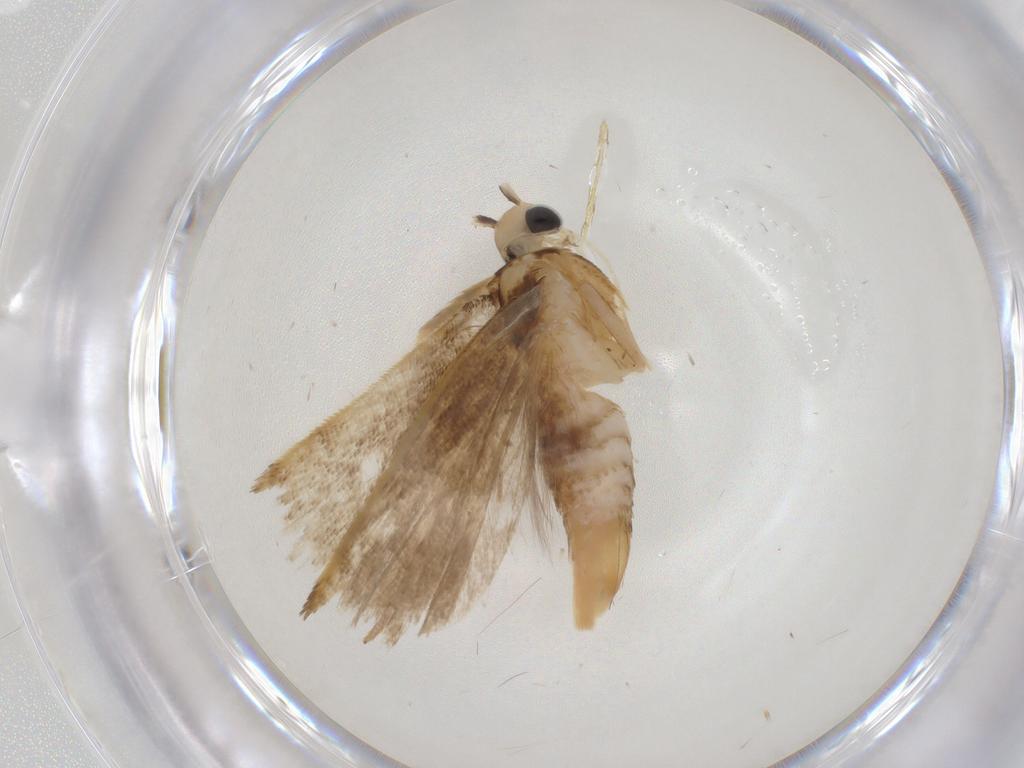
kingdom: Animalia
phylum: Arthropoda
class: Insecta
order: Lepidoptera
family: Gelechiidae
